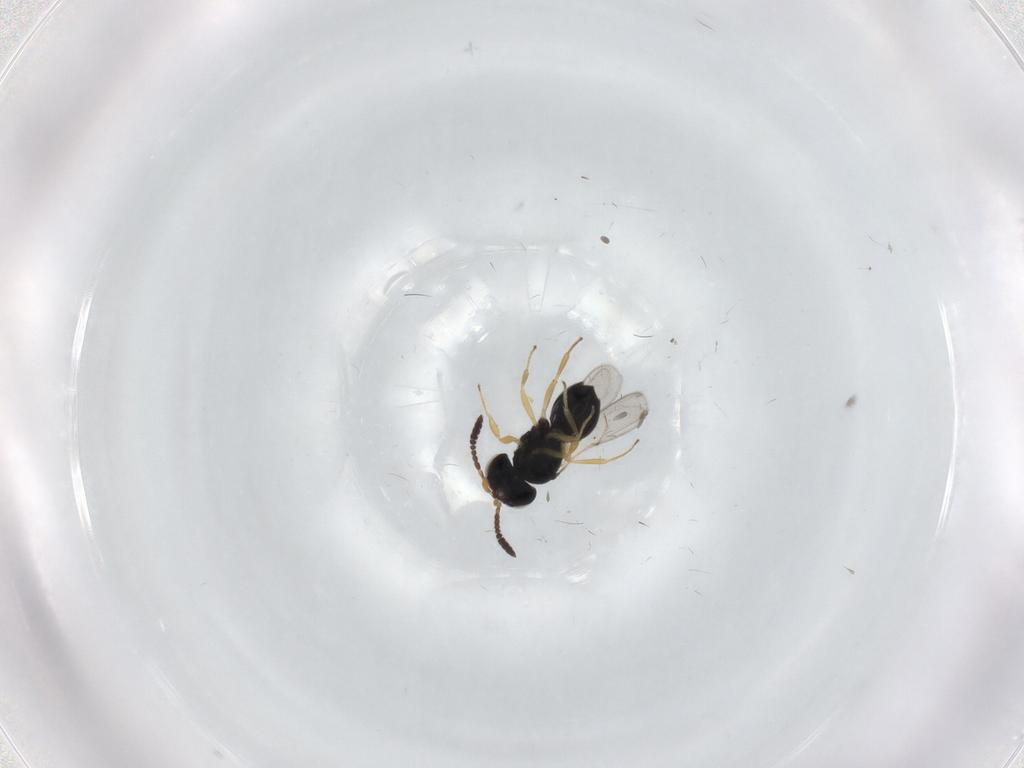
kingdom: Animalia
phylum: Arthropoda
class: Insecta
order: Hymenoptera
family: Scelionidae
